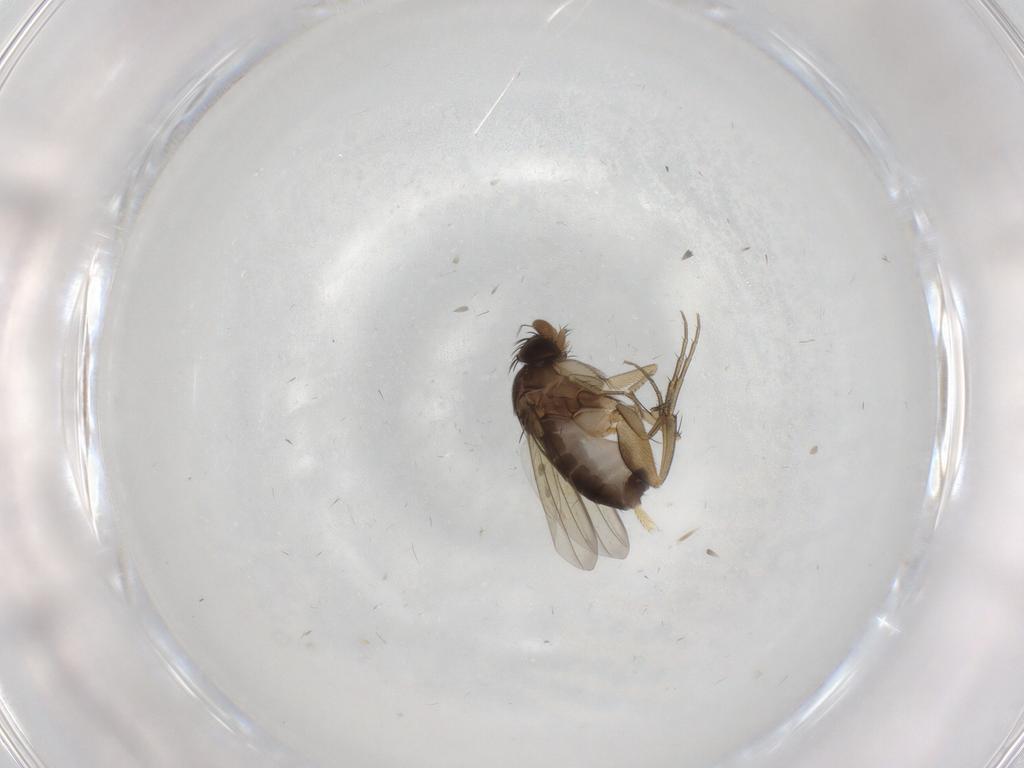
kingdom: Animalia
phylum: Arthropoda
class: Insecta
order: Diptera
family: Phoridae
